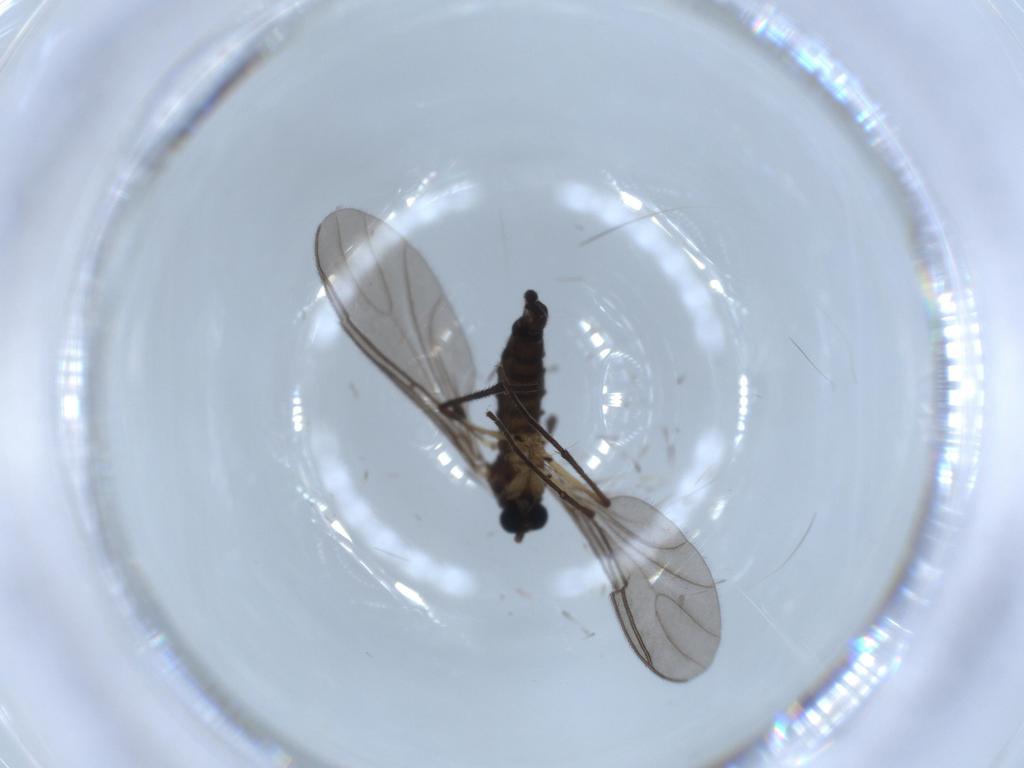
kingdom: Animalia
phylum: Arthropoda
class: Insecta
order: Diptera
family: Sciaridae
